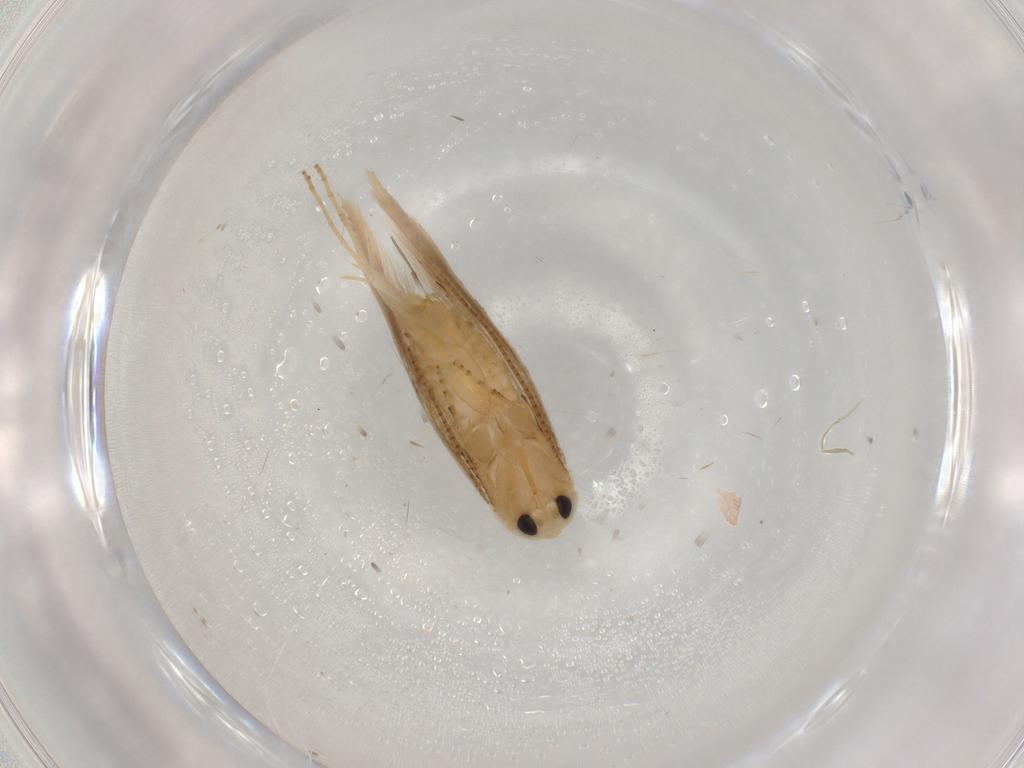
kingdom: Animalia
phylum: Arthropoda
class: Insecta
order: Lepidoptera
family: Bucculatricidae
